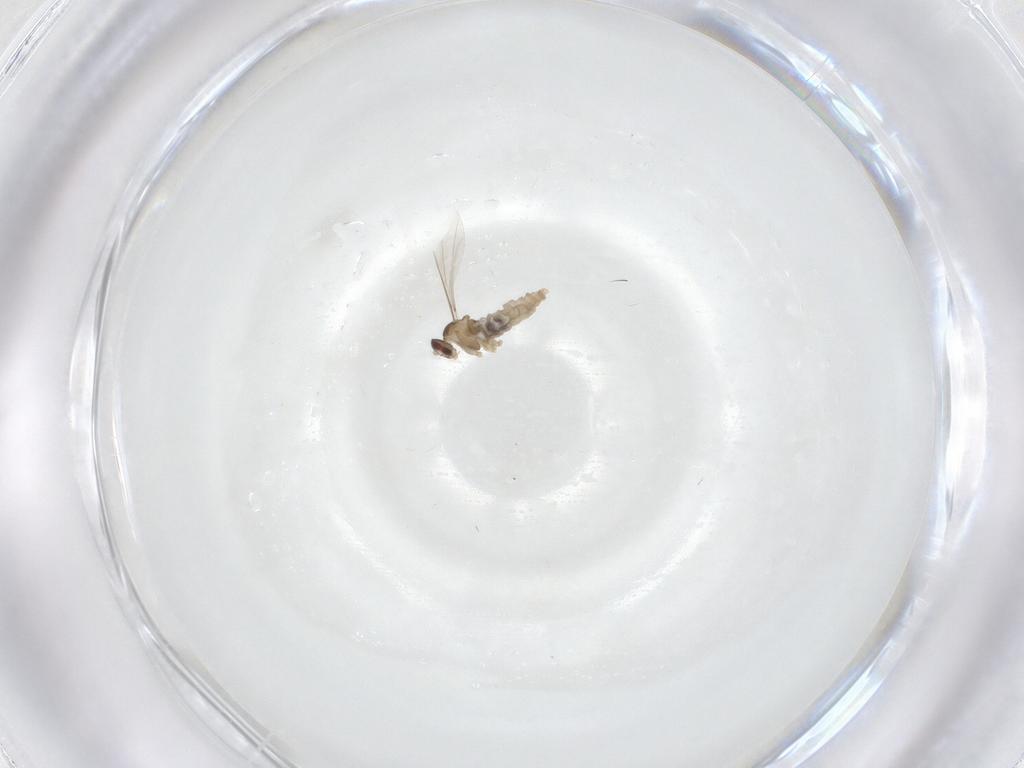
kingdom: Animalia
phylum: Arthropoda
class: Insecta
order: Diptera
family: Cecidomyiidae
